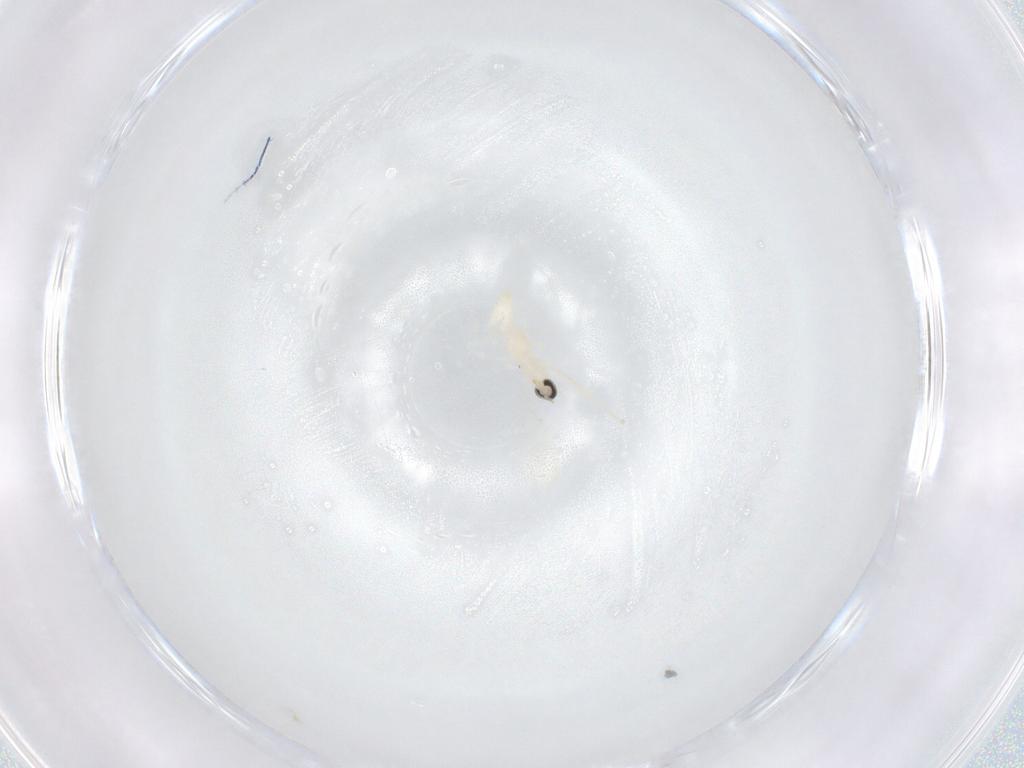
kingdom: Animalia
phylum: Arthropoda
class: Insecta
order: Diptera
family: Cecidomyiidae
